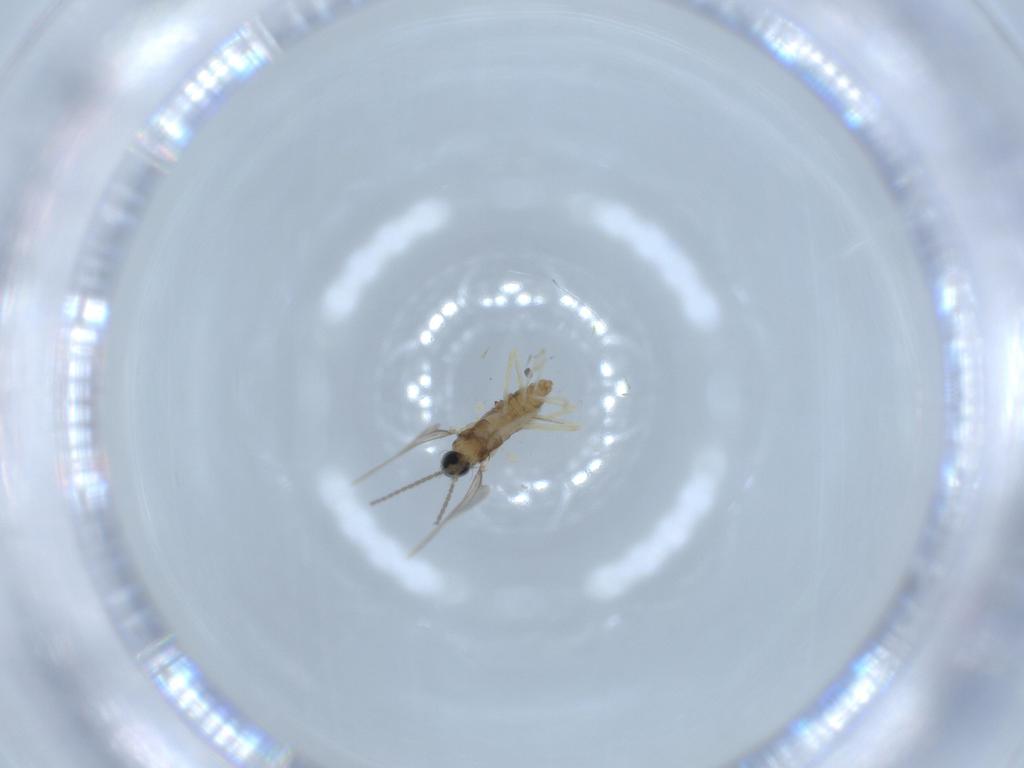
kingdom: Animalia
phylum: Arthropoda
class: Insecta
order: Diptera
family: Cecidomyiidae
